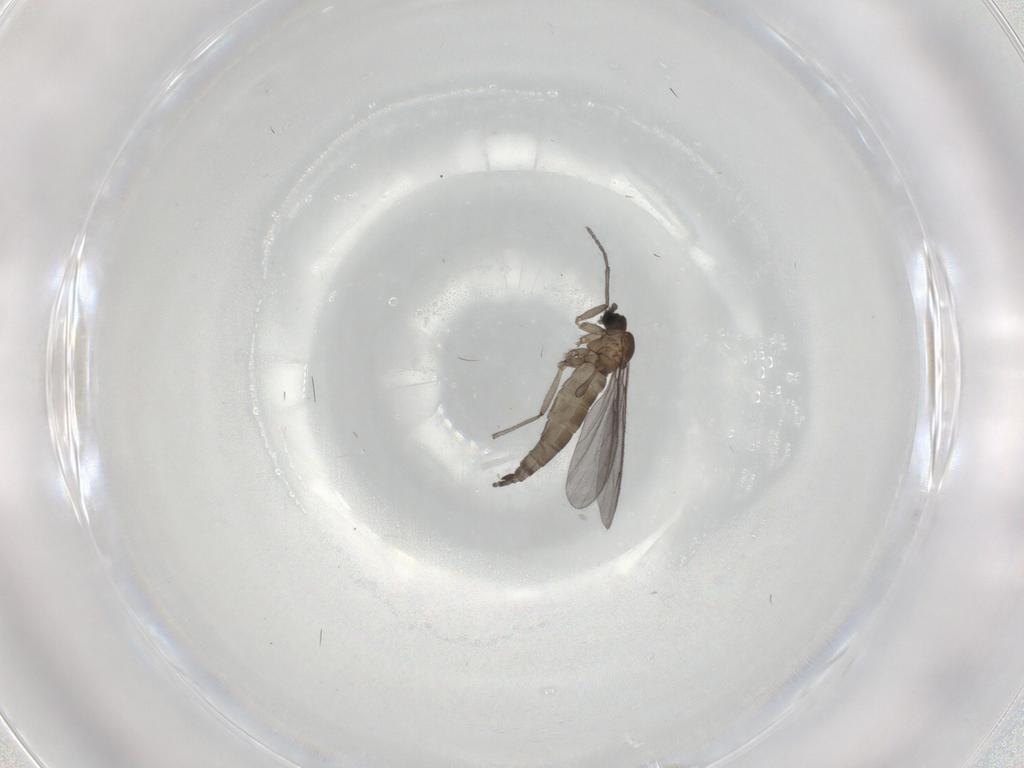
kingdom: Animalia
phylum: Arthropoda
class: Insecta
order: Diptera
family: Sciaridae
